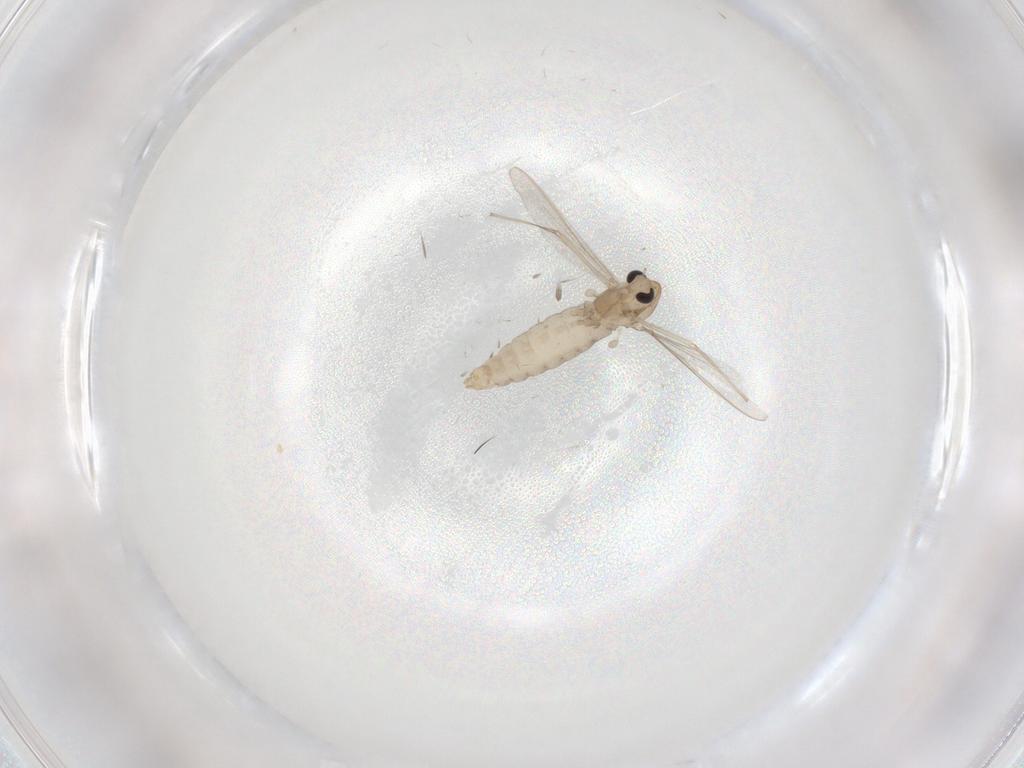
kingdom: Animalia
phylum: Arthropoda
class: Insecta
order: Diptera
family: Chironomidae
